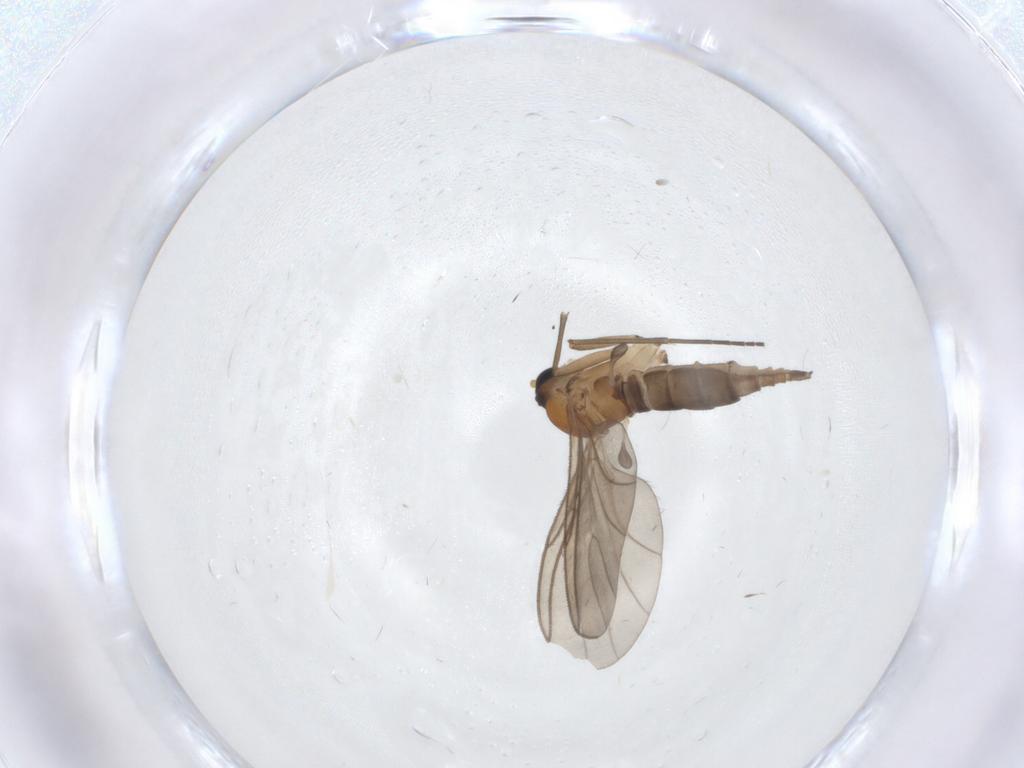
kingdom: Animalia
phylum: Arthropoda
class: Insecta
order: Diptera
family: Sciaridae
